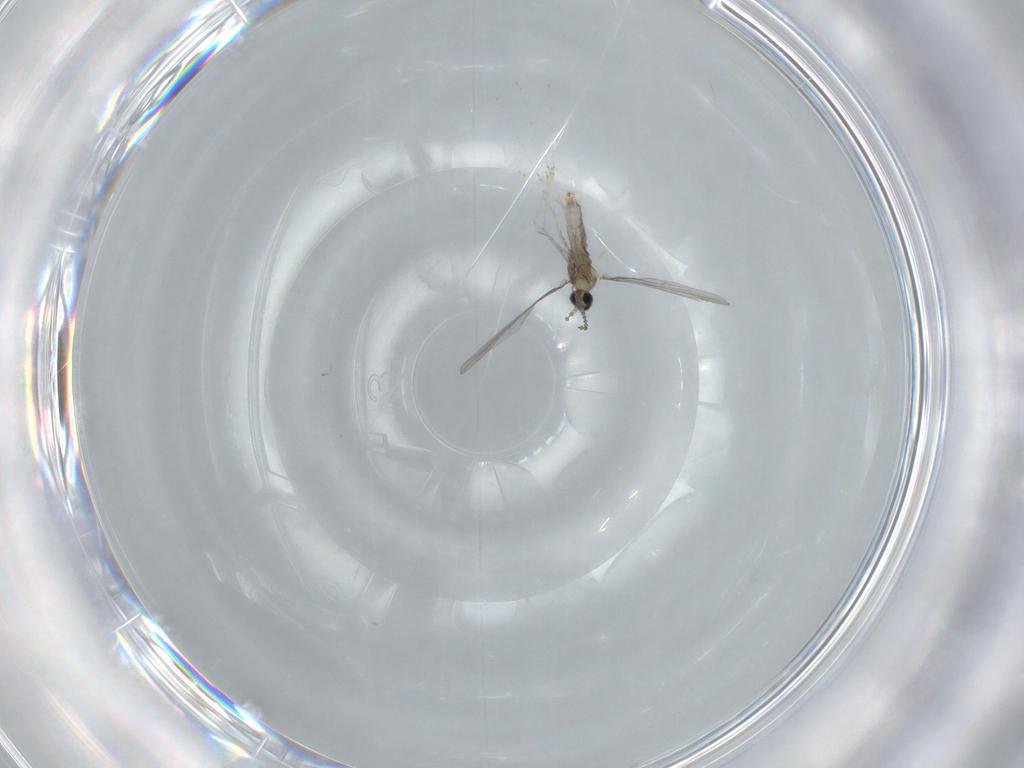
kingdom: Animalia
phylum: Arthropoda
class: Insecta
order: Diptera
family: Cecidomyiidae
